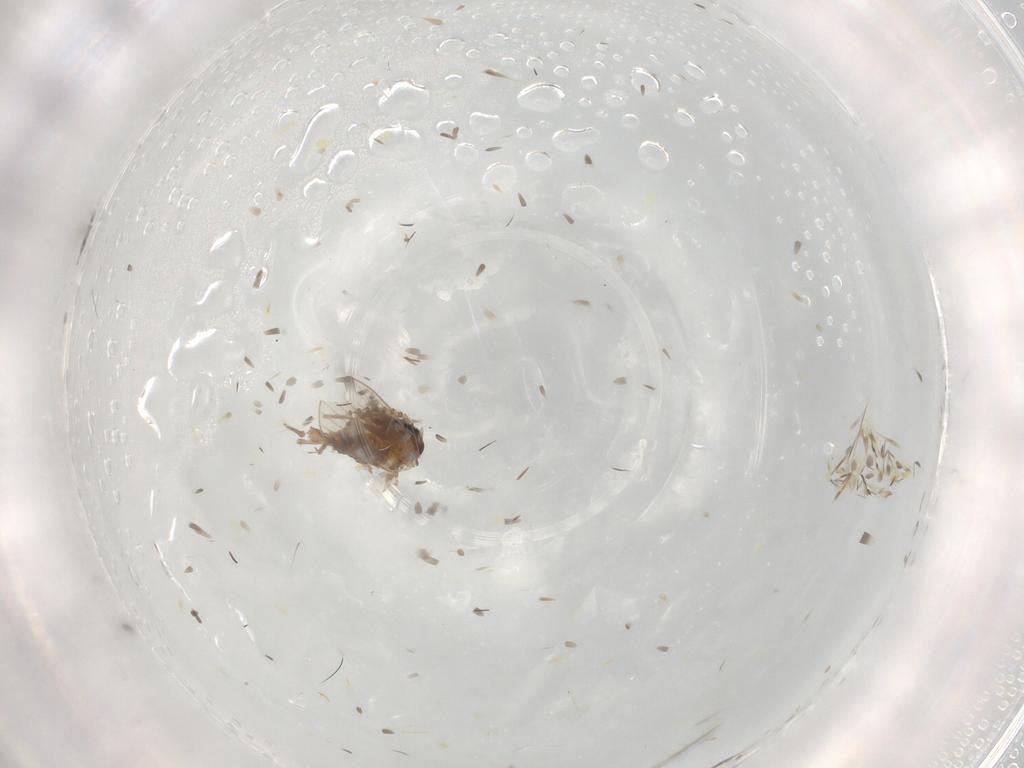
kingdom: Animalia
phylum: Arthropoda
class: Insecta
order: Diptera
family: Psychodidae
